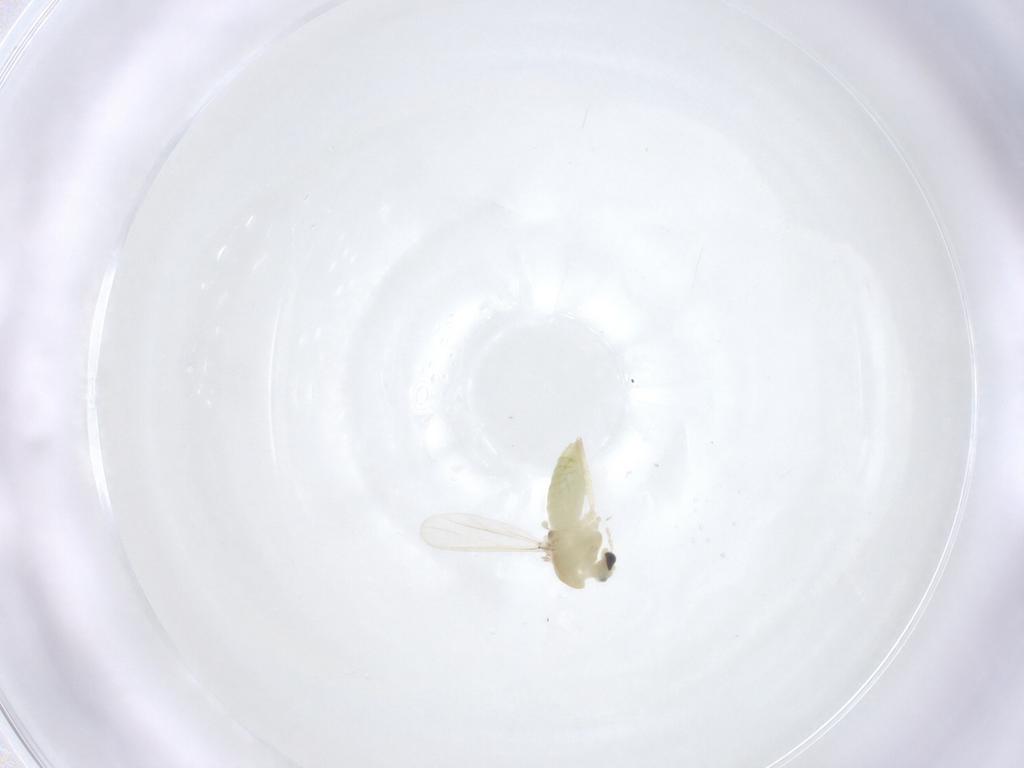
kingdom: Animalia
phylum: Arthropoda
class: Insecta
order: Diptera
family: Chironomidae
